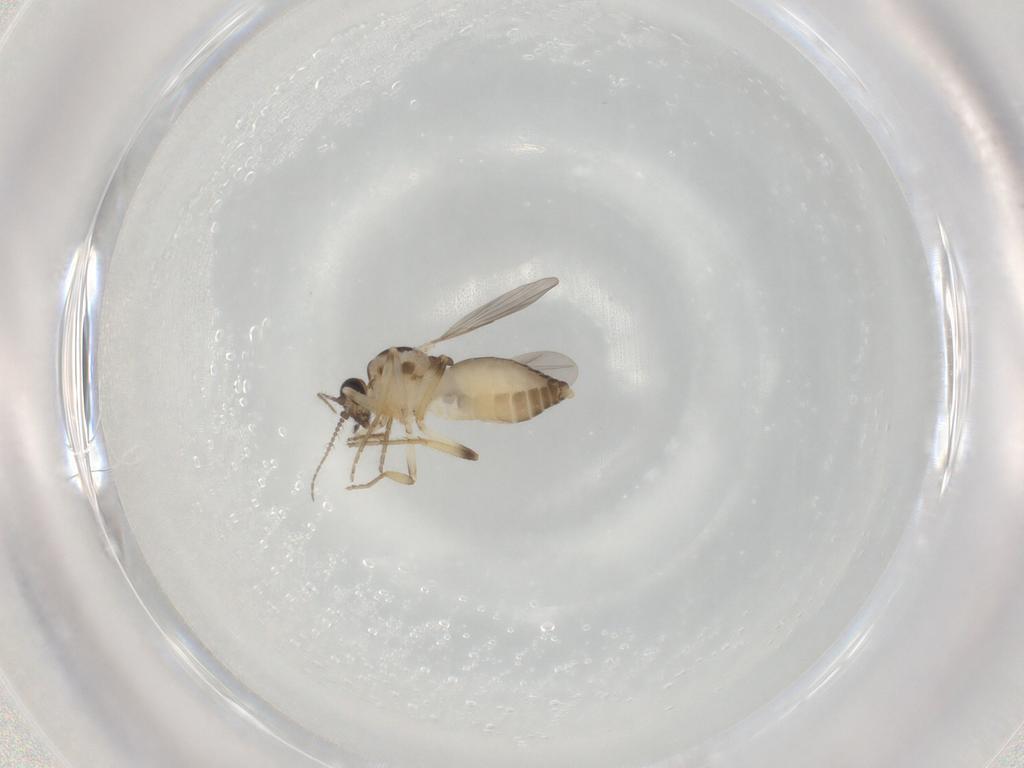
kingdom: Animalia
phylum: Arthropoda
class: Insecta
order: Diptera
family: Ceratopogonidae
